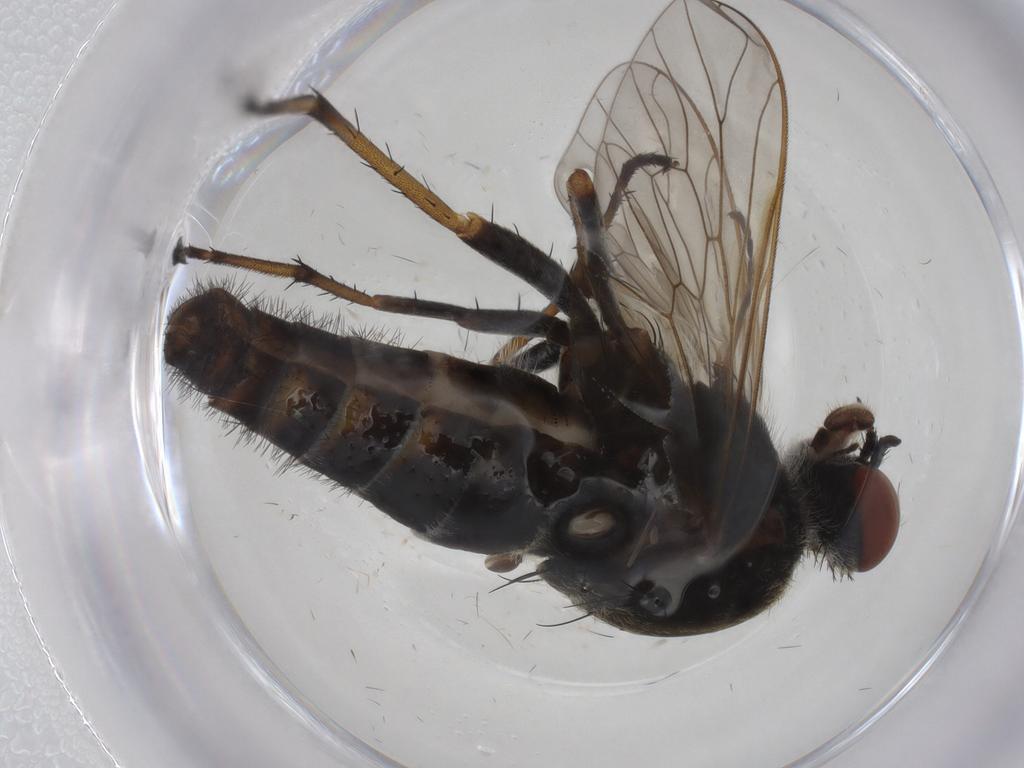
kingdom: Animalia
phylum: Arthropoda
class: Insecta
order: Diptera
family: Therevidae
